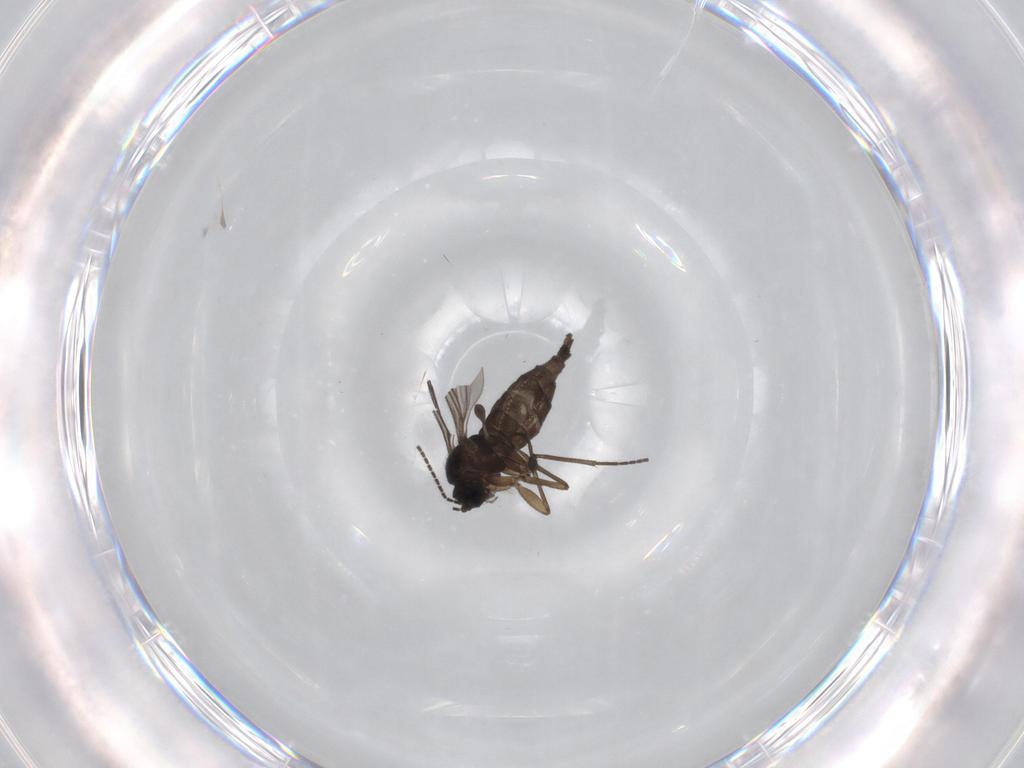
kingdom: Animalia
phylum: Arthropoda
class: Insecta
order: Diptera
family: Sciaridae
